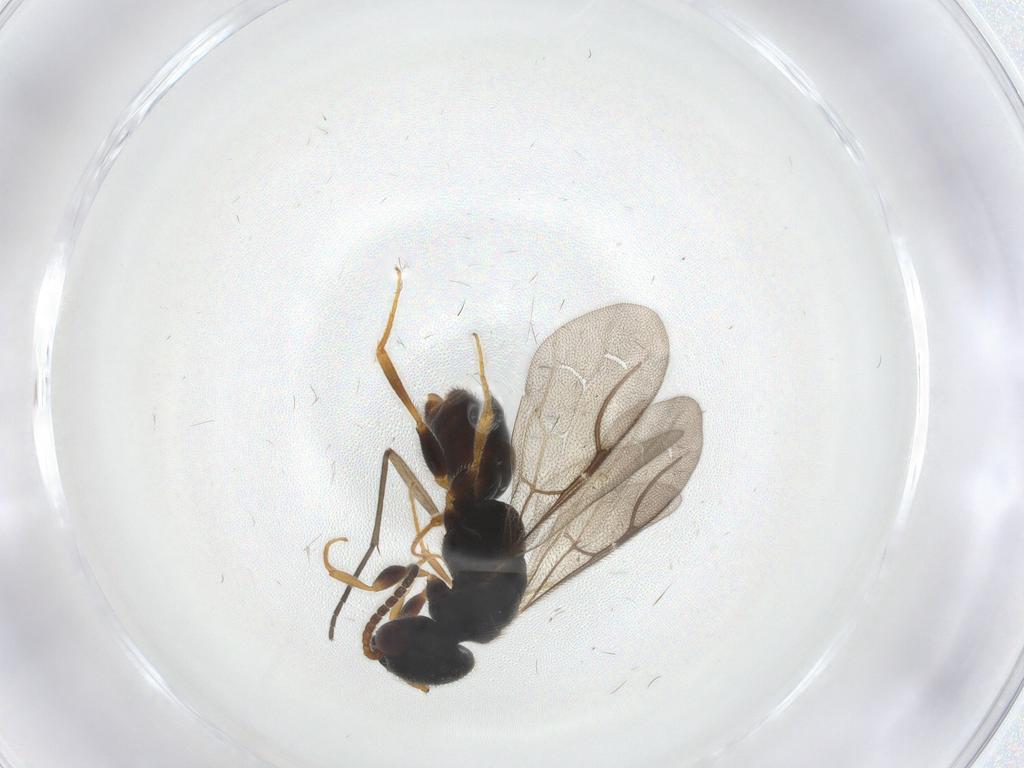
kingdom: Animalia
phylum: Arthropoda
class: Insecta
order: Hymenoptera
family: Bethylidae
